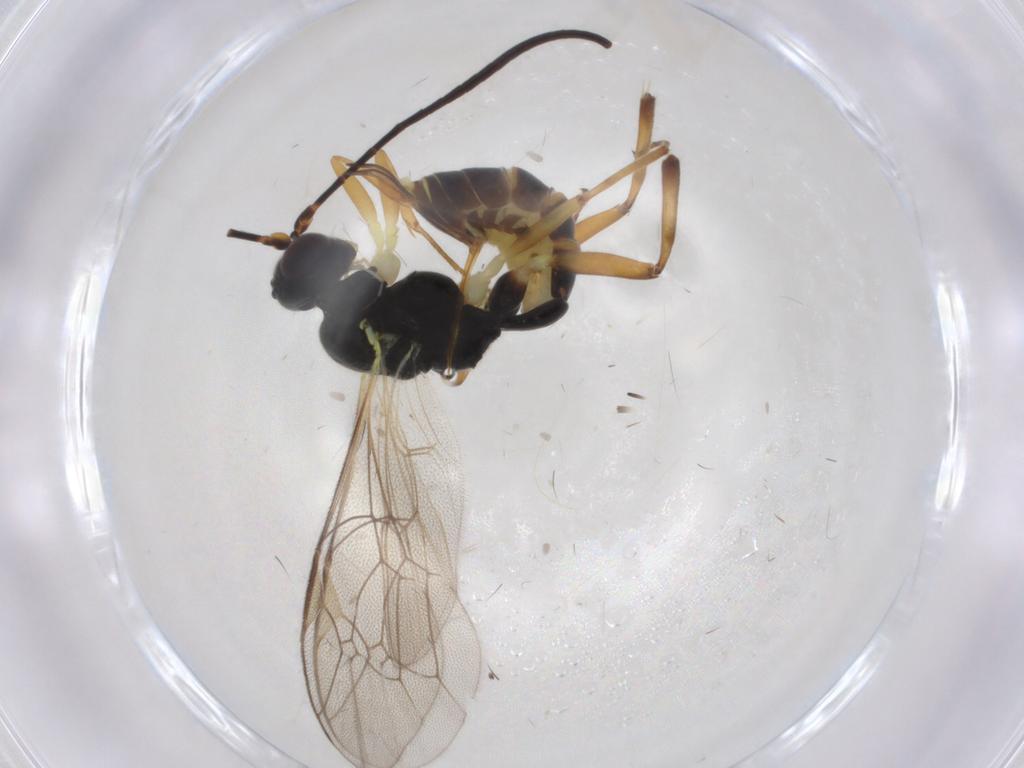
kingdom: Animalia
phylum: Arthropoda
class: Insecta
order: Hymenoptera
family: Ichneumonidae
